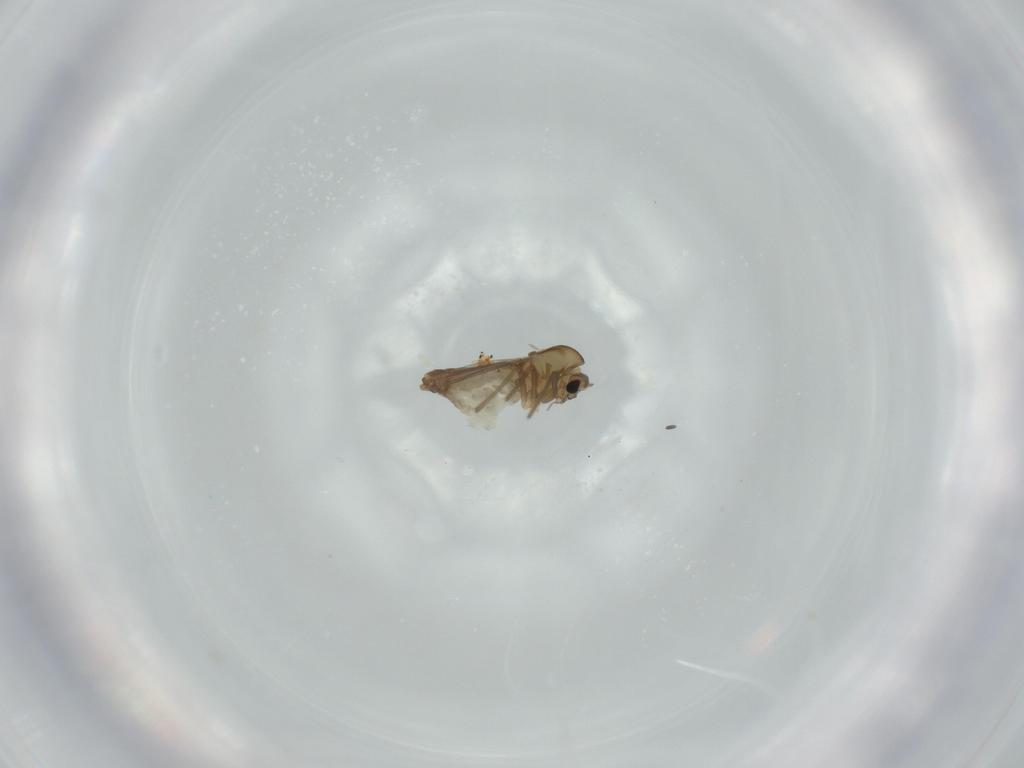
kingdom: Animalia
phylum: Arthropoda
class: Insecta
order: Diptera
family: Chironomidae
